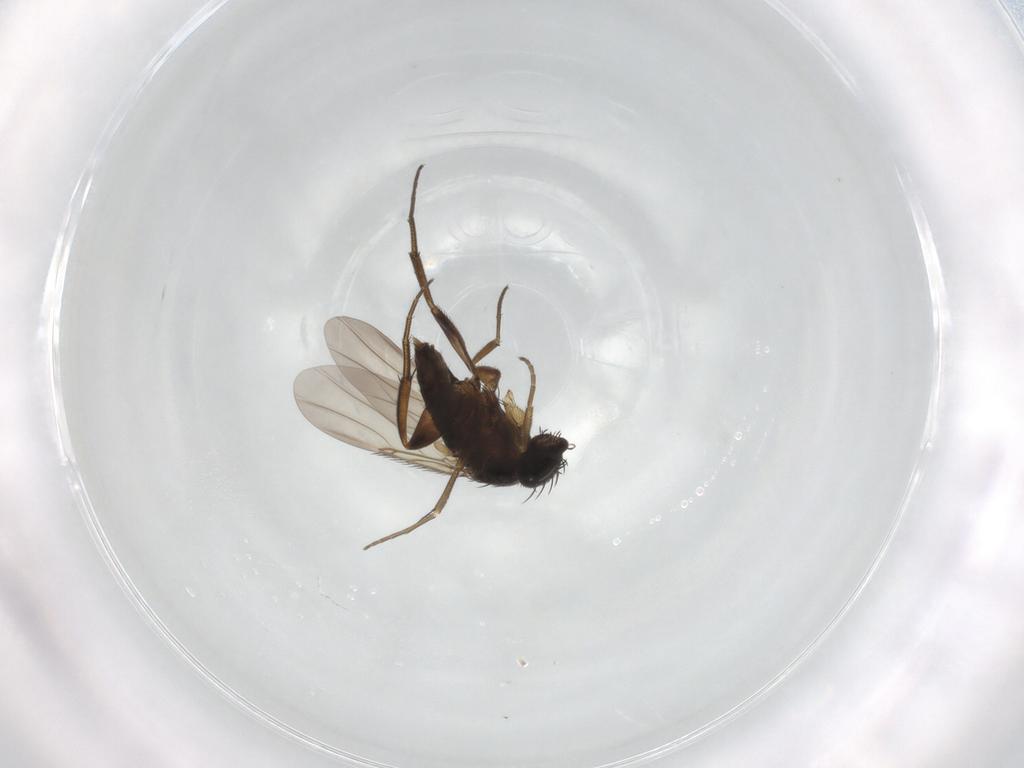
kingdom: Animalia
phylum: Arthropoda
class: Insecta
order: Diptera
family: Phoridae
